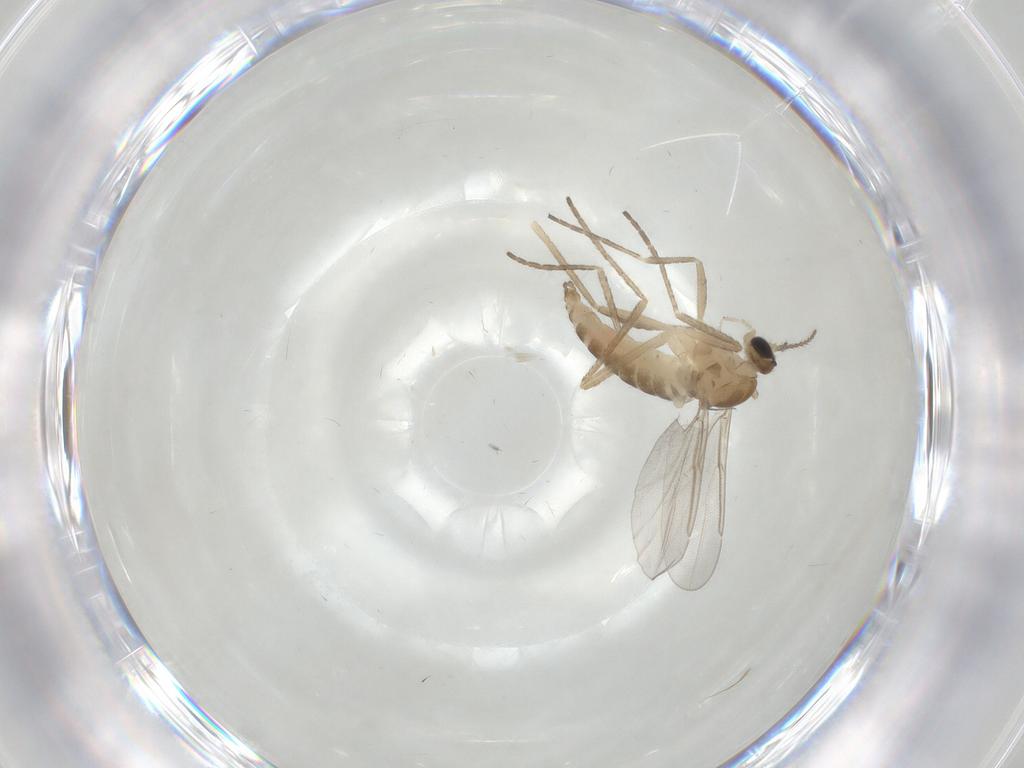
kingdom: Animalia
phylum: Arthropoda
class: Insecta
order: Diptera
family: Cecidomyiidae
